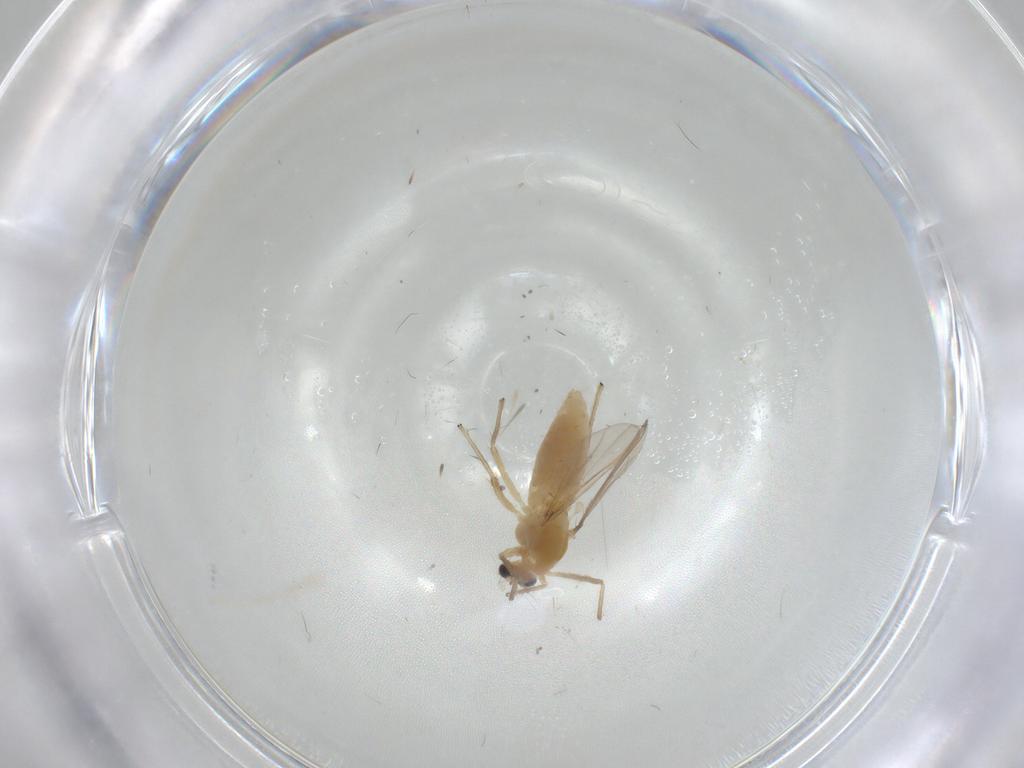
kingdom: Animalia
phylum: Arthropoda
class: Insecta
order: Diptera
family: Chironomidae
